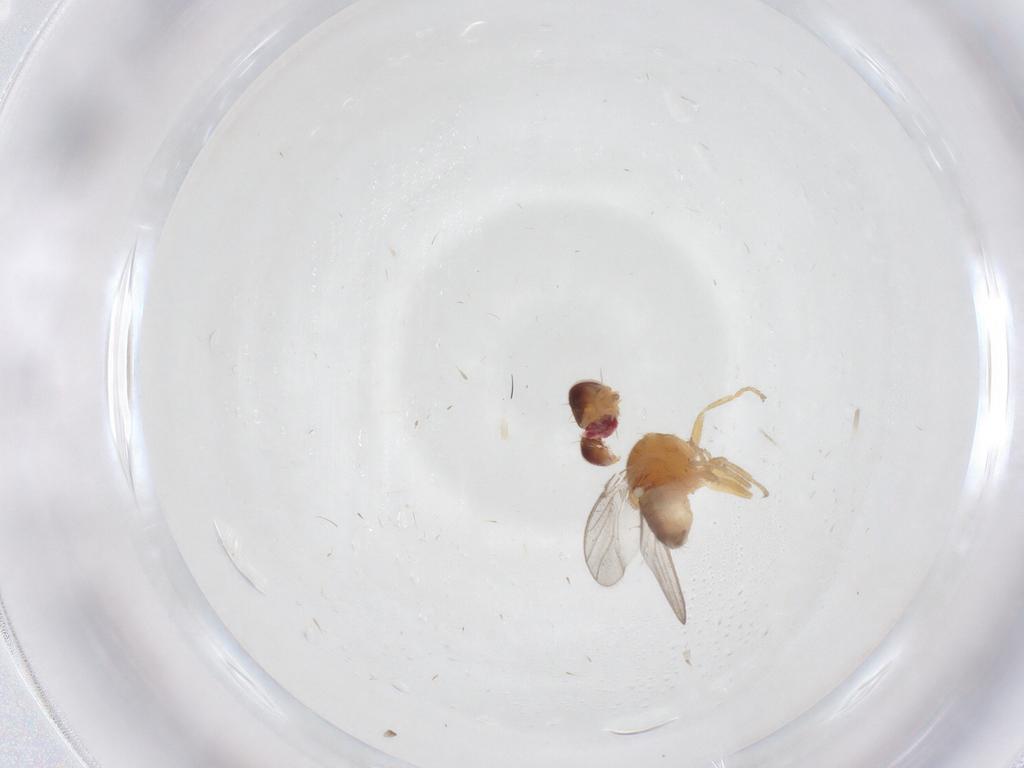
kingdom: Animalia
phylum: Arthropoda
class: Insecta
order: Diptera
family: Chloropidae
